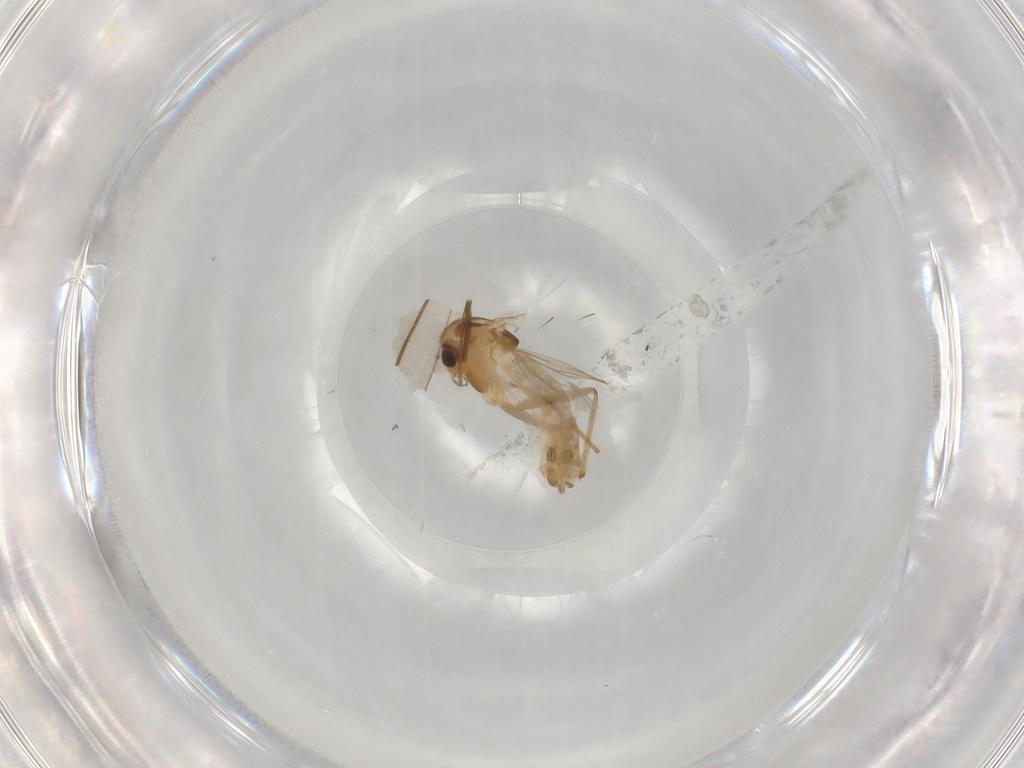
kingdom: Animalia
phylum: Arthropoda
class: Insecta
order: Diptera
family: Chironomidae
